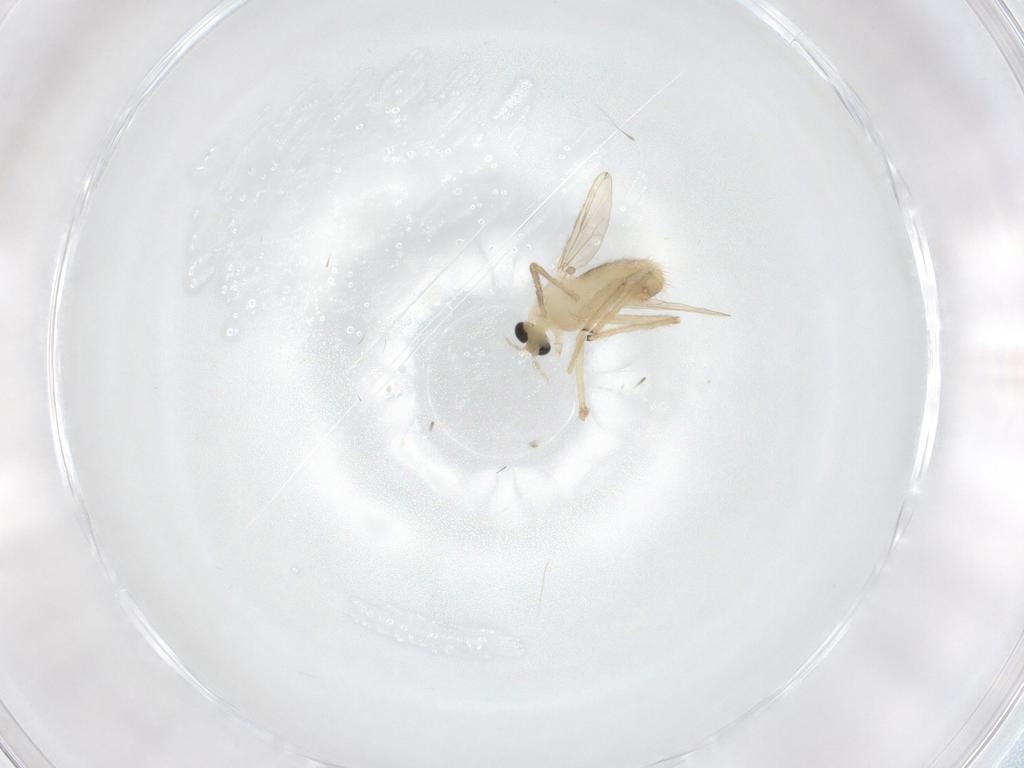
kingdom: Animalia
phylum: Arthropoda
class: Insecta
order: Diptera
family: Chironomidae
